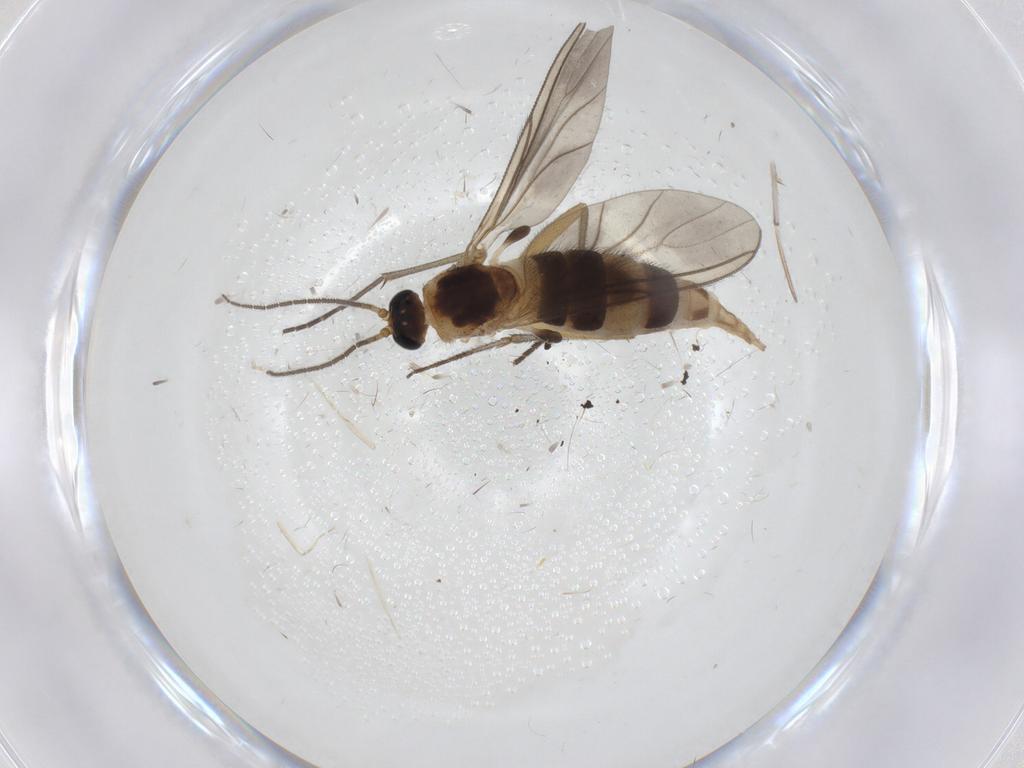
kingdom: Animalia
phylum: Arthropoda
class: Insecta
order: Diptera
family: Sciaridae
